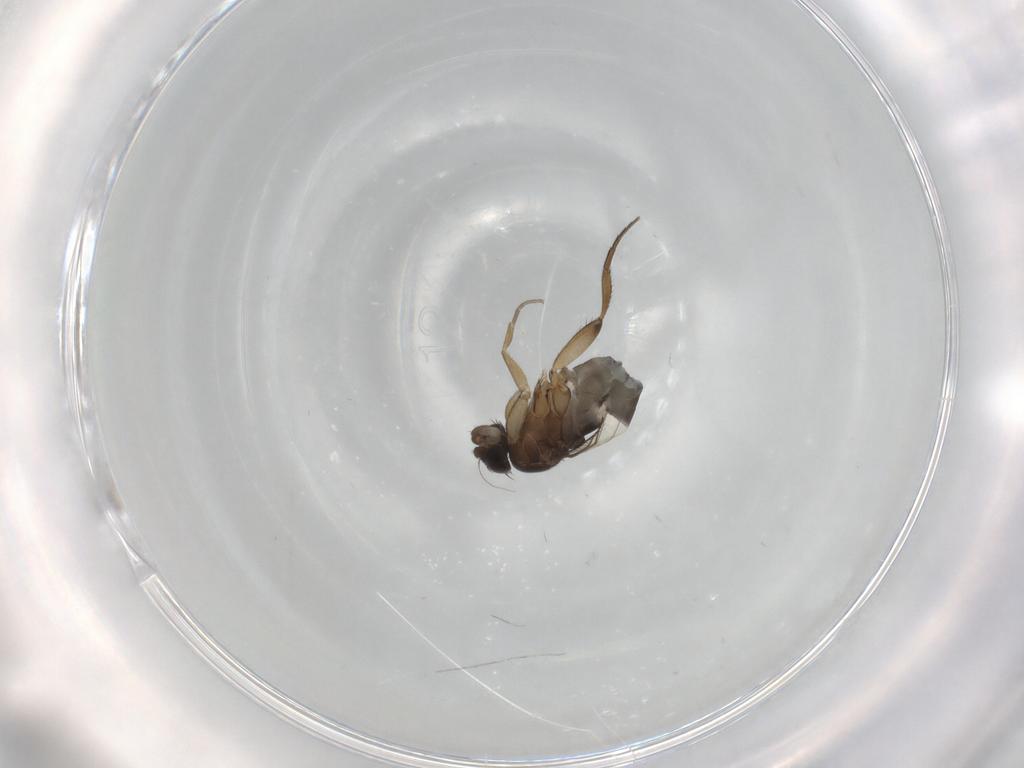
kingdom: Animalia
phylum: Arthropoda
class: Insecta
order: Diptera
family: Phoridae
